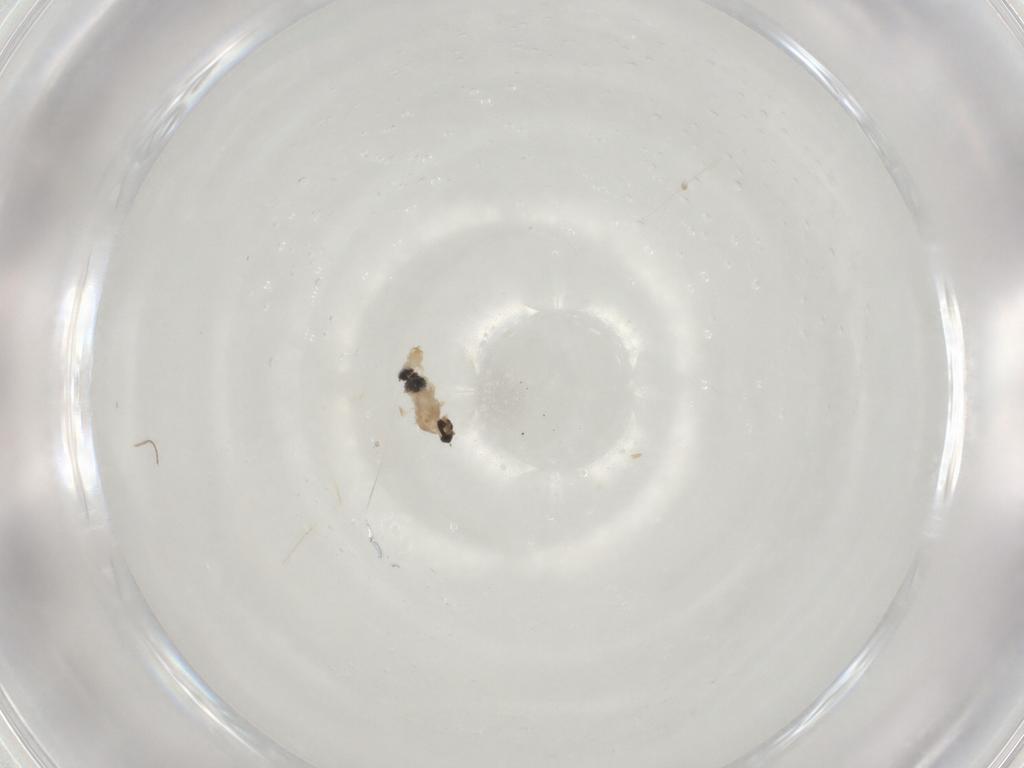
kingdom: Animalia
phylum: Arthropoda
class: Insecta
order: Diptera
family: Cecidomyiidae
